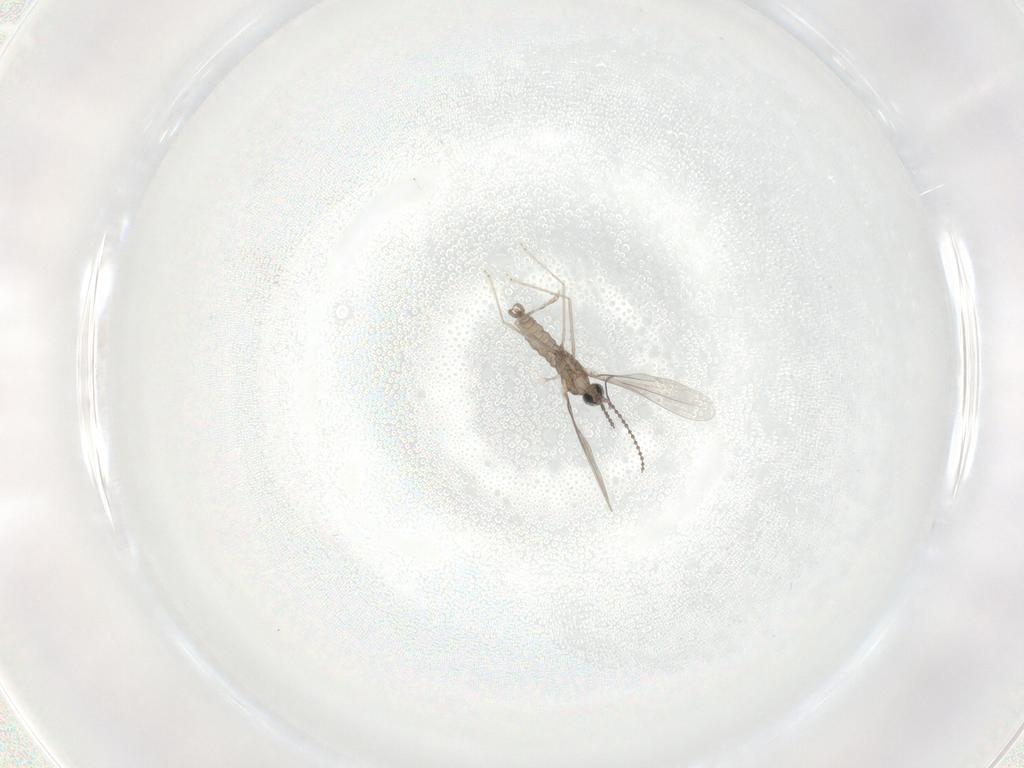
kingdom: Animalia
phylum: Arthropoda
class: Insecta
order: Diptera
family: Cecidomyiidae
